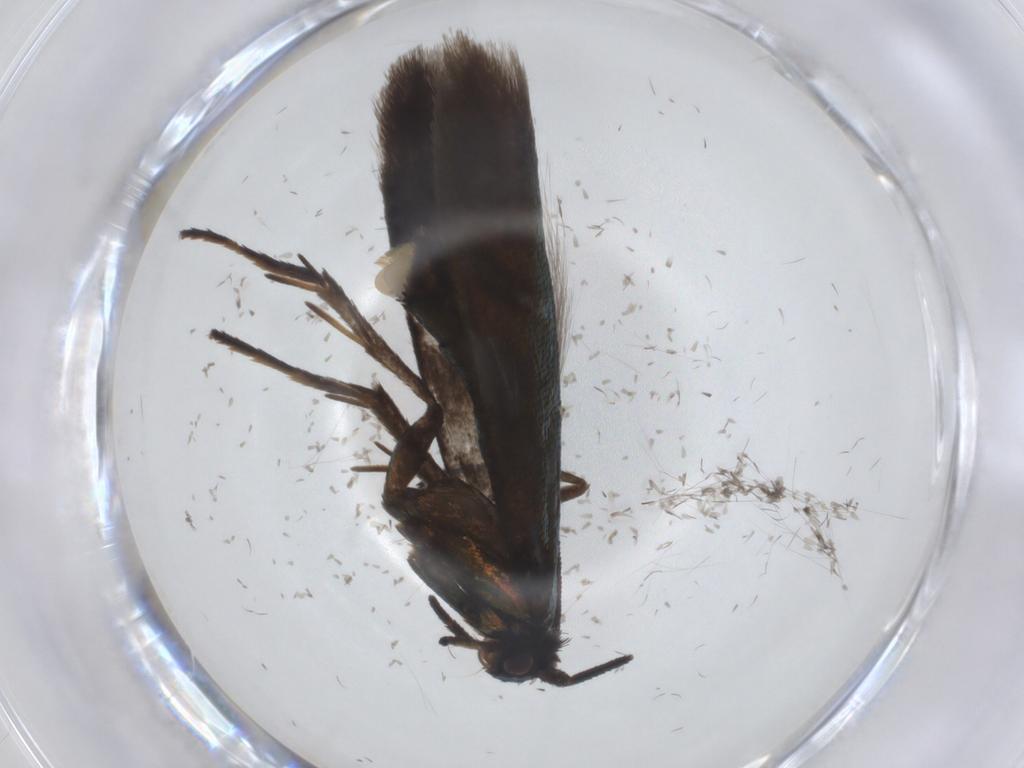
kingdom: Animalia
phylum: Arthropoda
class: Insecta
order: Lepidoptera
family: Argyresthiidae
